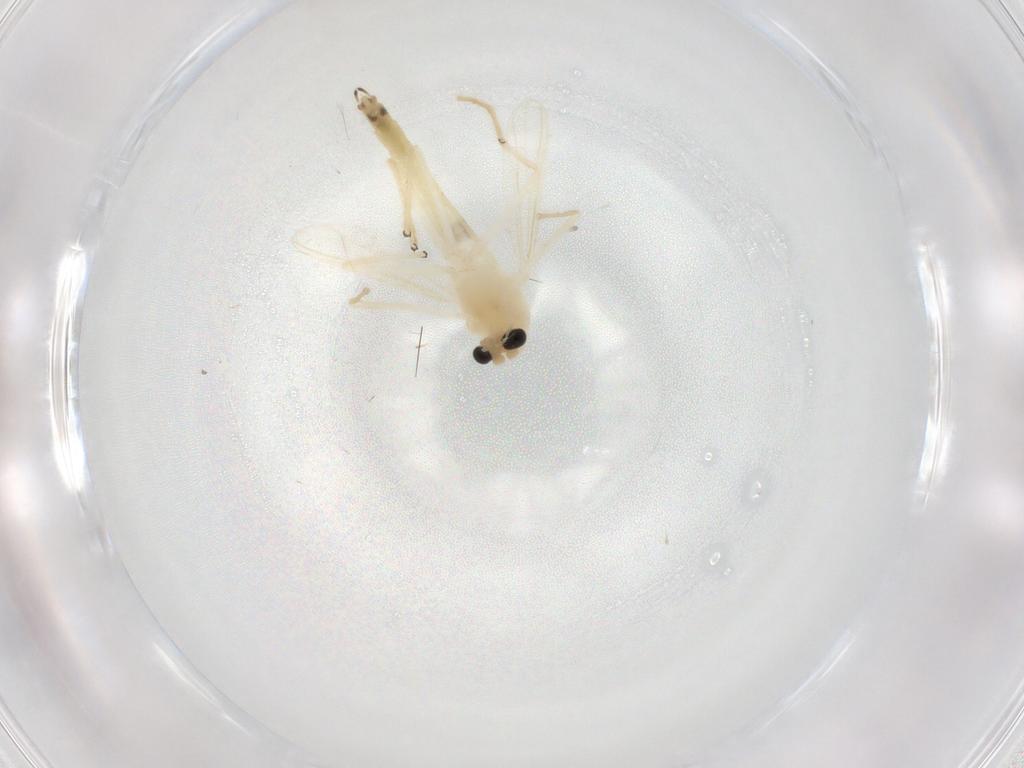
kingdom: Animalia
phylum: Arthropoda
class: Insecta
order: Diptera
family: Chironomidae
